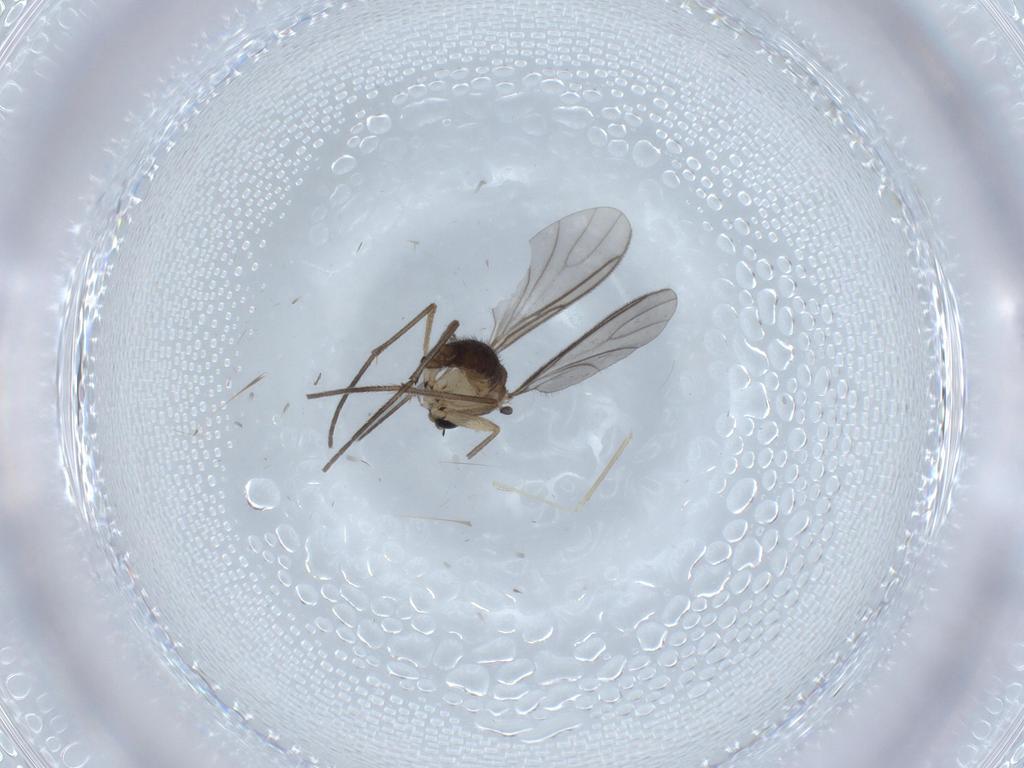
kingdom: Animalia
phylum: Arthropoda
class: Insecta
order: Diptera
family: Sciaridae
